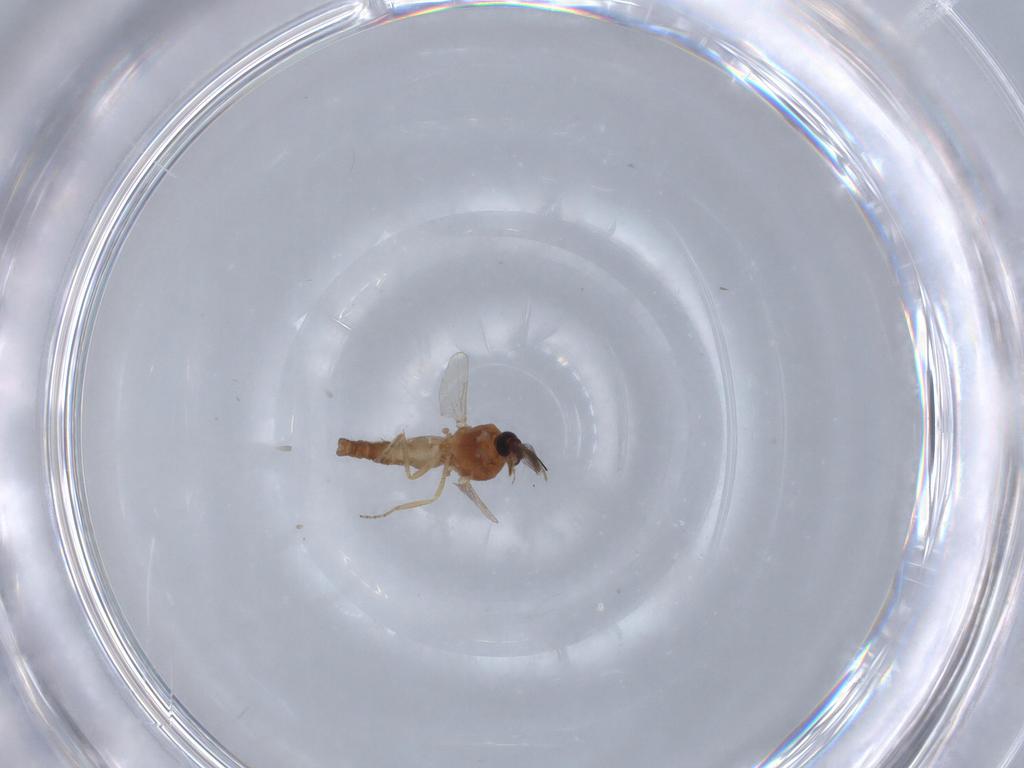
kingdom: Animalia
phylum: Arthropoda
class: Insecta
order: Diptera
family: Ceratopogonidae
